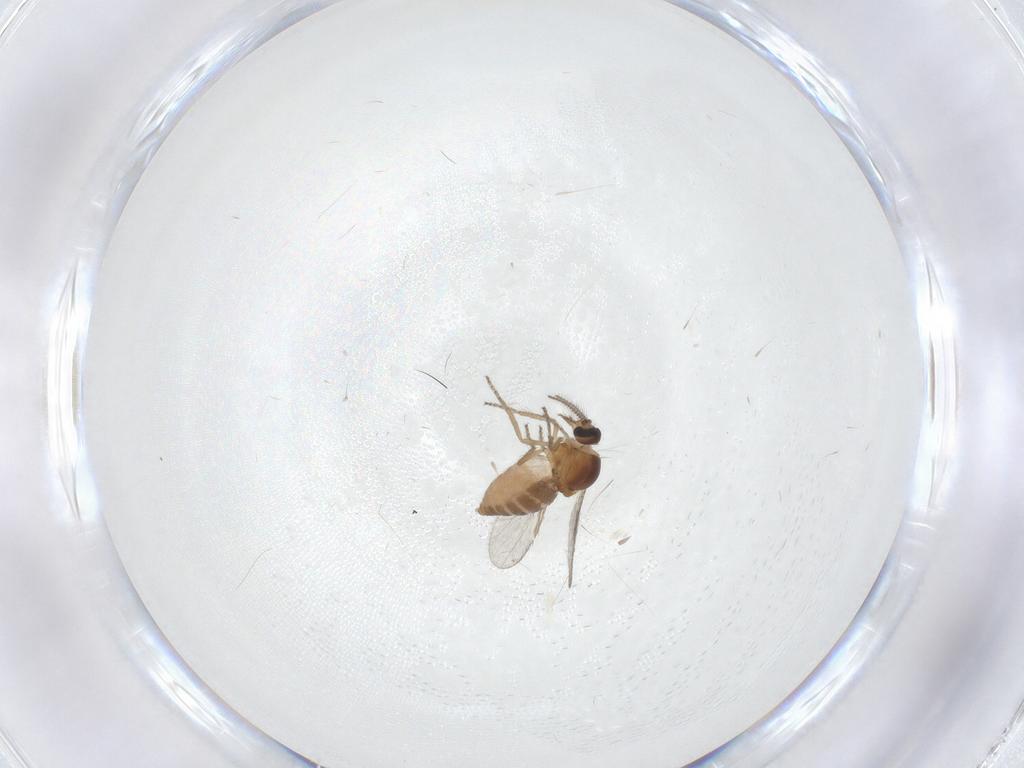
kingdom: Animalia
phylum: Arthropoda
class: Insecta
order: Diptera
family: Ceratopogonidae
